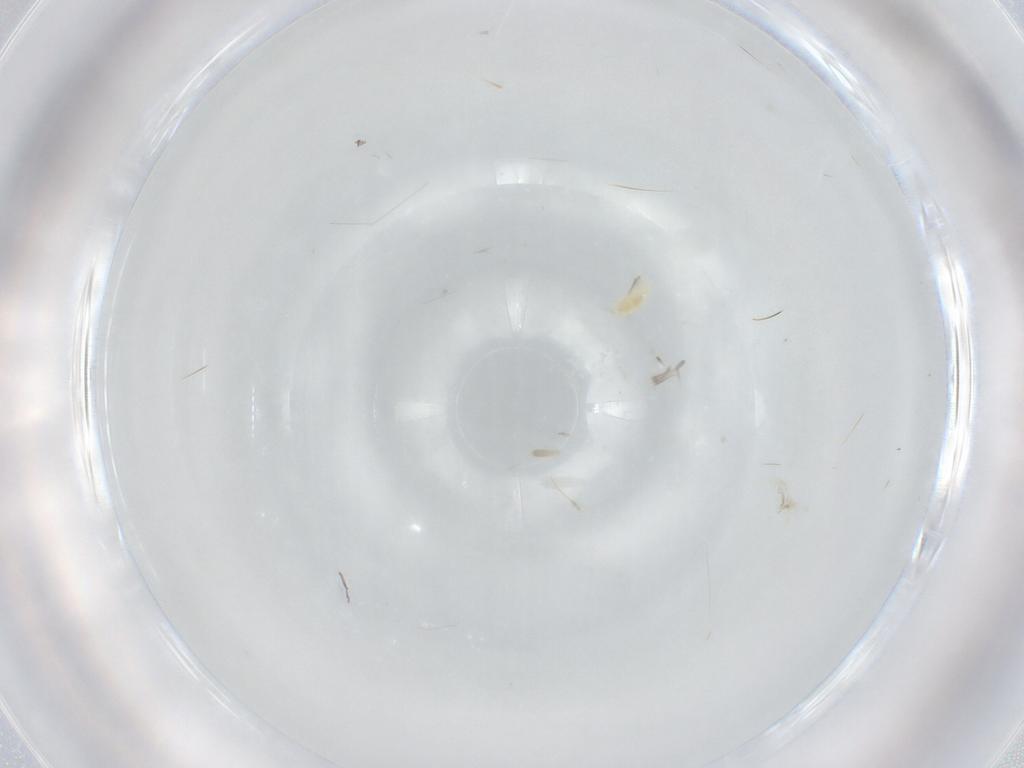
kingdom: Animalia
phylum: Arthropoda
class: Arachnida
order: Trombidiformes
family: Eupodidae
